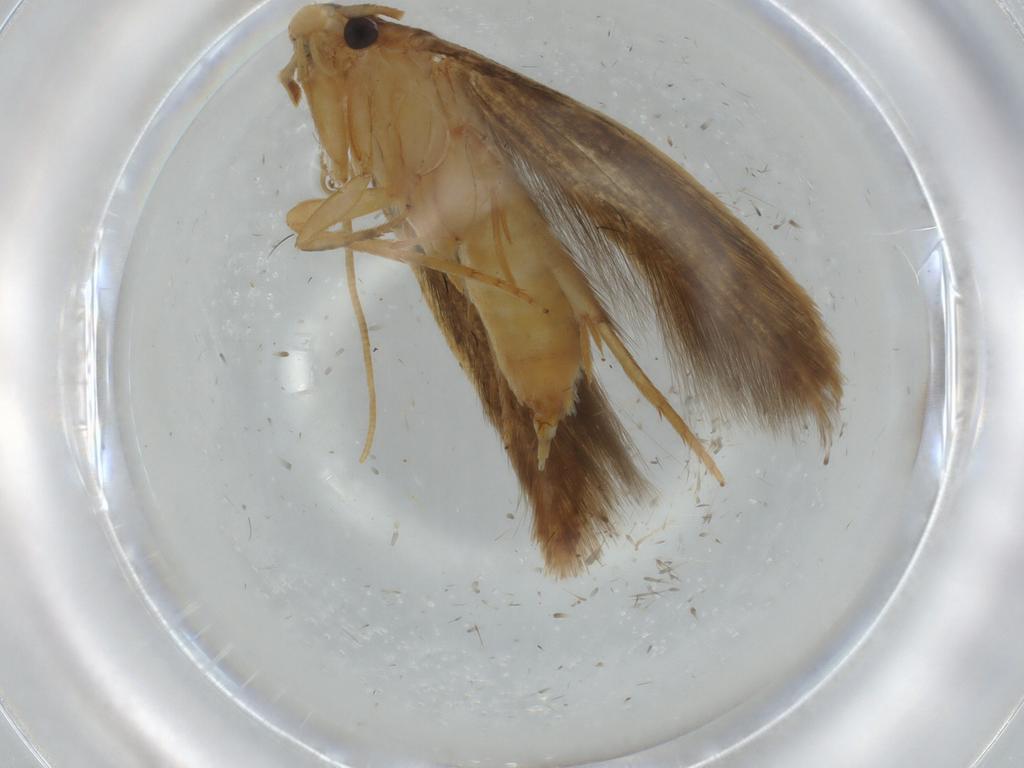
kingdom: Animalia
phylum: Arthropoda
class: Insecta
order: Lepidoptera
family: Tineidae
